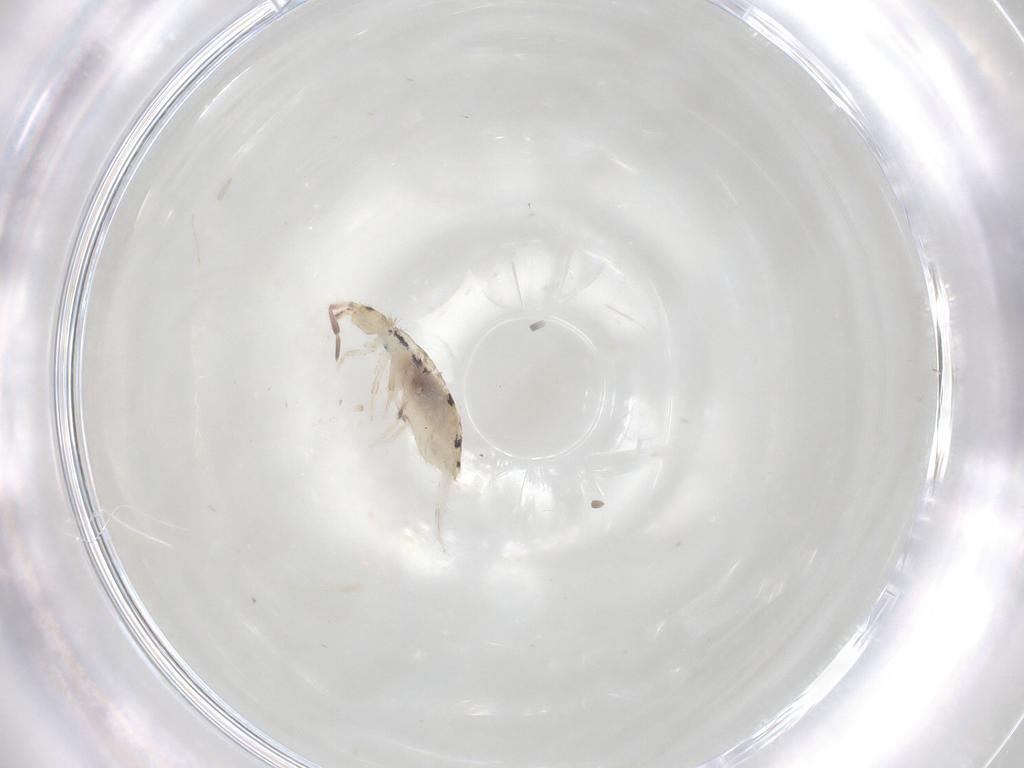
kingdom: Animalia
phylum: Arthropoda
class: Collembola
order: Entomobryomorpha
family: Entomobryidae
